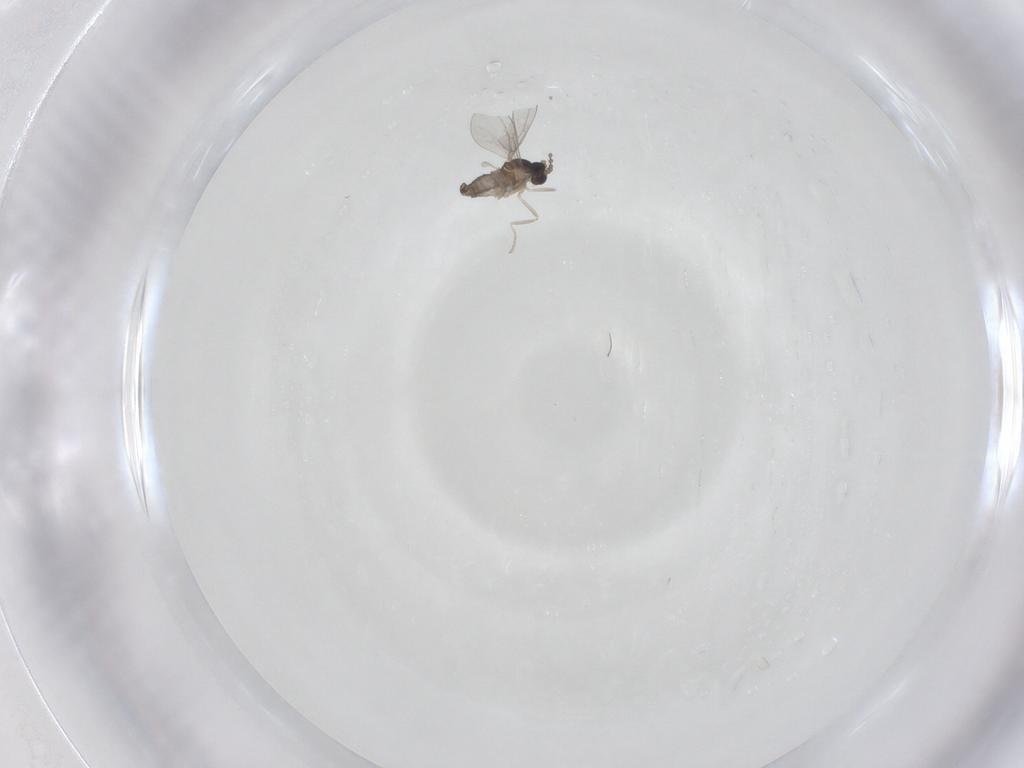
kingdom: Animalia
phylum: Arthropoda
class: Insecta
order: Diptera
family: Cecidomyiidae
